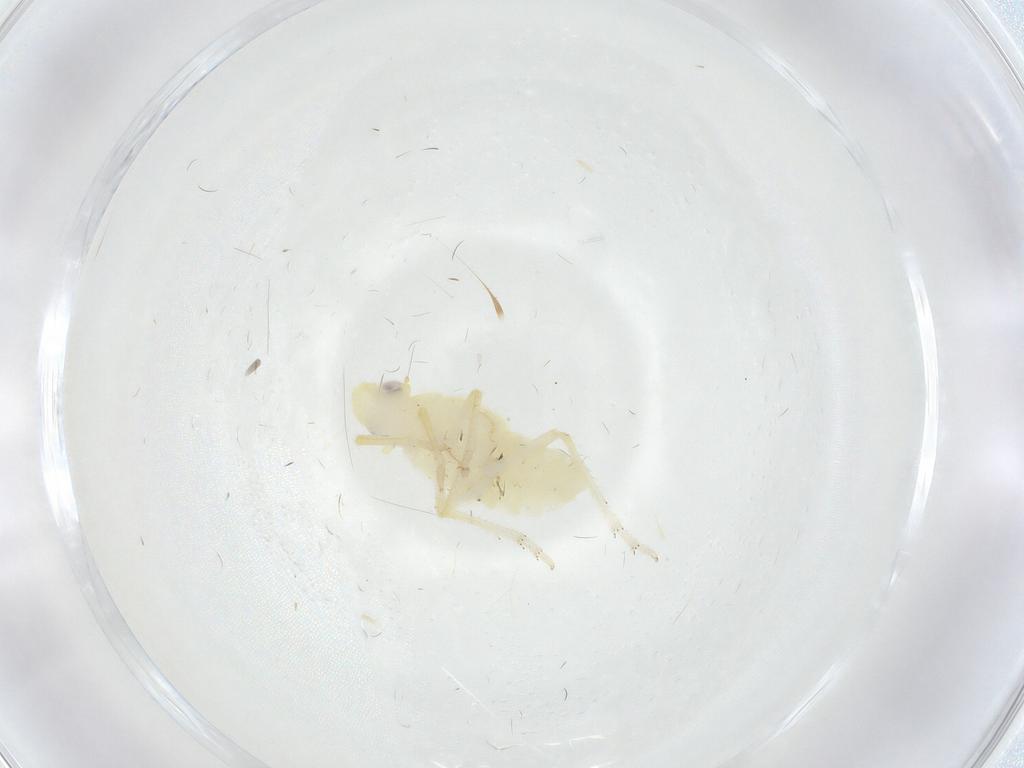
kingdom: Animalia
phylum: Arthropoda
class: Insecta
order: Hemiptera
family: Tropiduchidae
